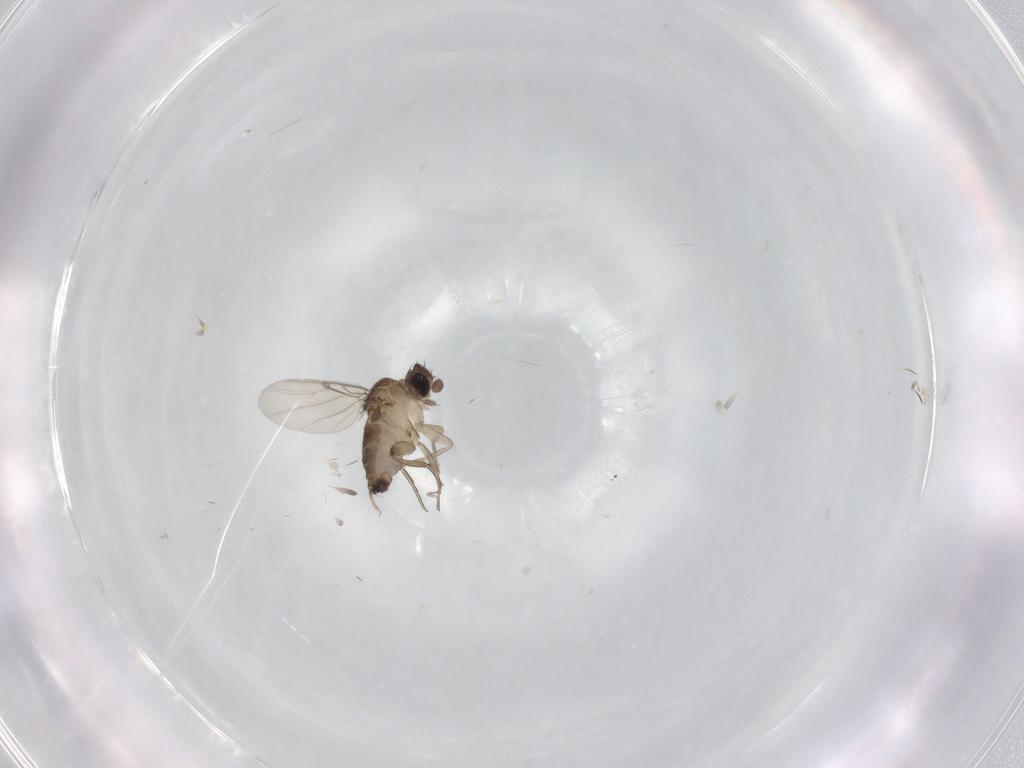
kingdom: Animalia
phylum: Arthropoda
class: Insecta
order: Diptera
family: Phoridae
